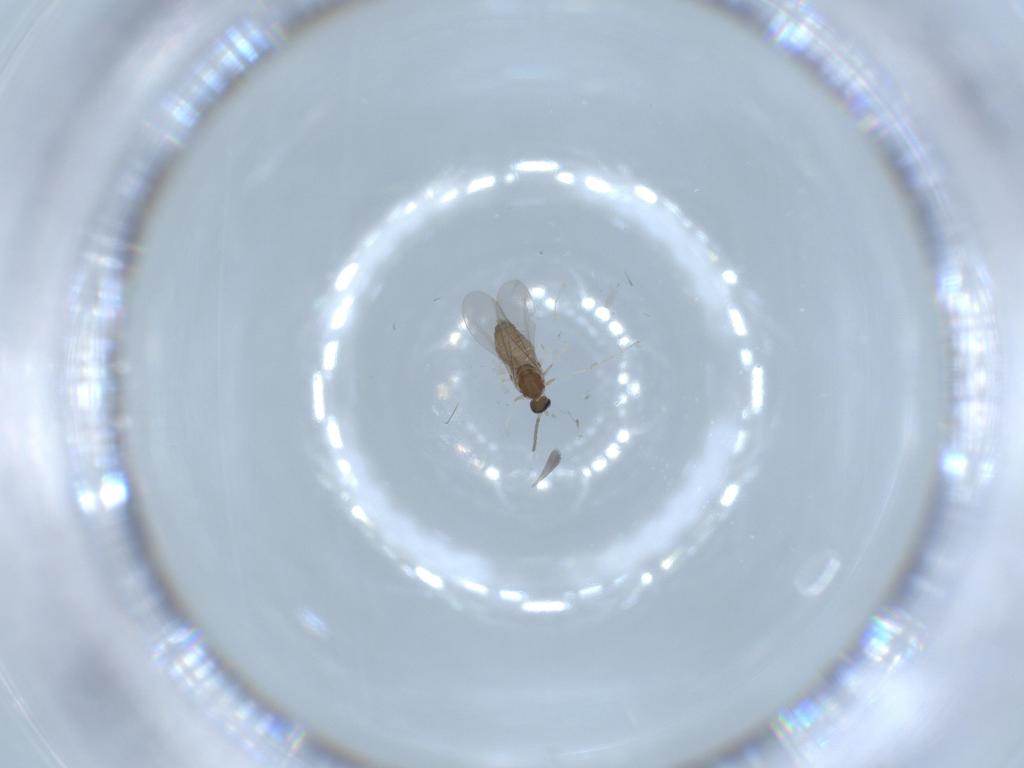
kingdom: Animalia
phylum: Arthropoda
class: Insecta
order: Diptera
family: Cecidomyiidae
